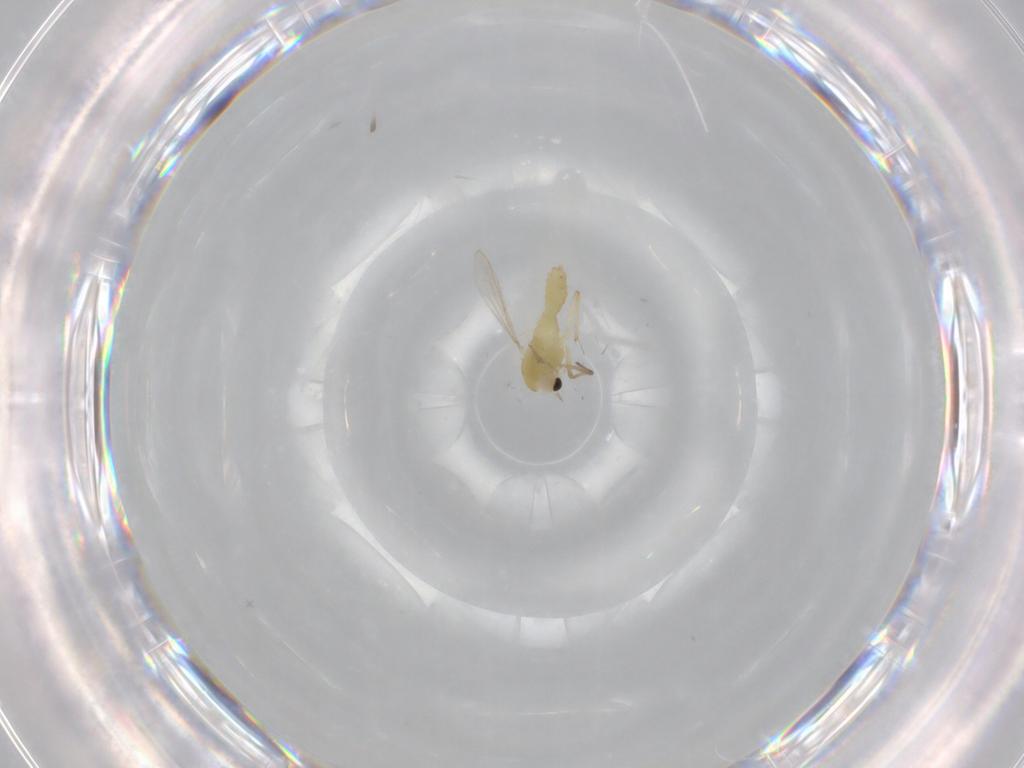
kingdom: Animalia
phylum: Arthropoda
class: Insecta
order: Diptera
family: Chironomidae
